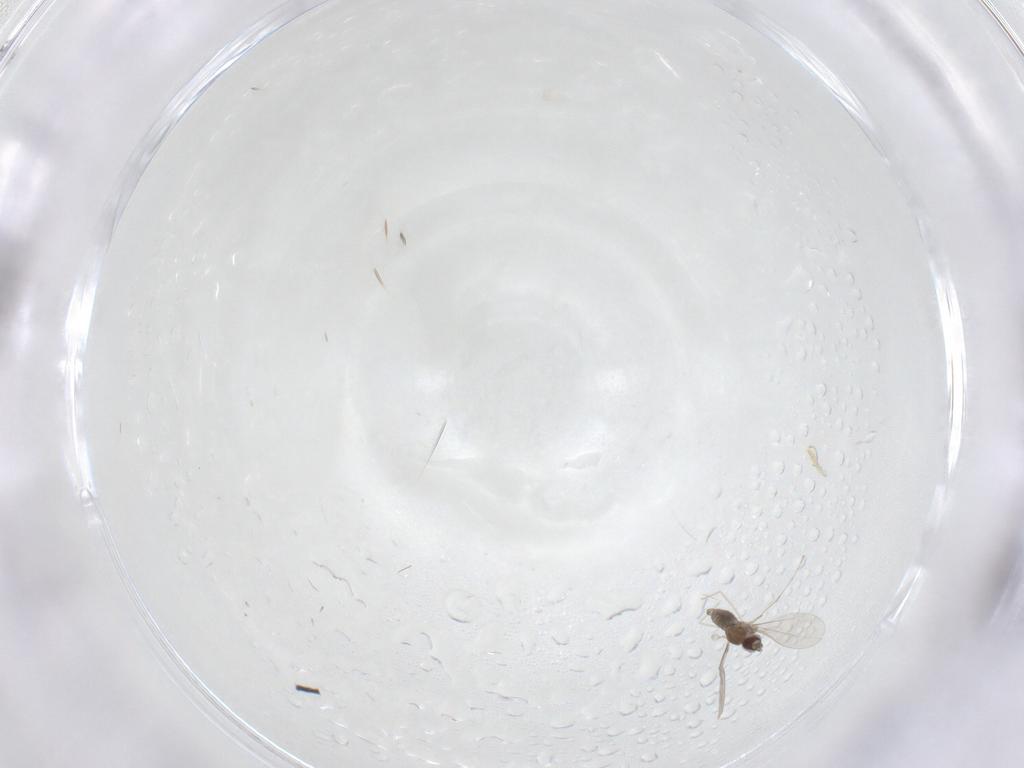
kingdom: Animalia
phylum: Arthropoda
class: Insecta
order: Diptera
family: Cecidomyiidae
